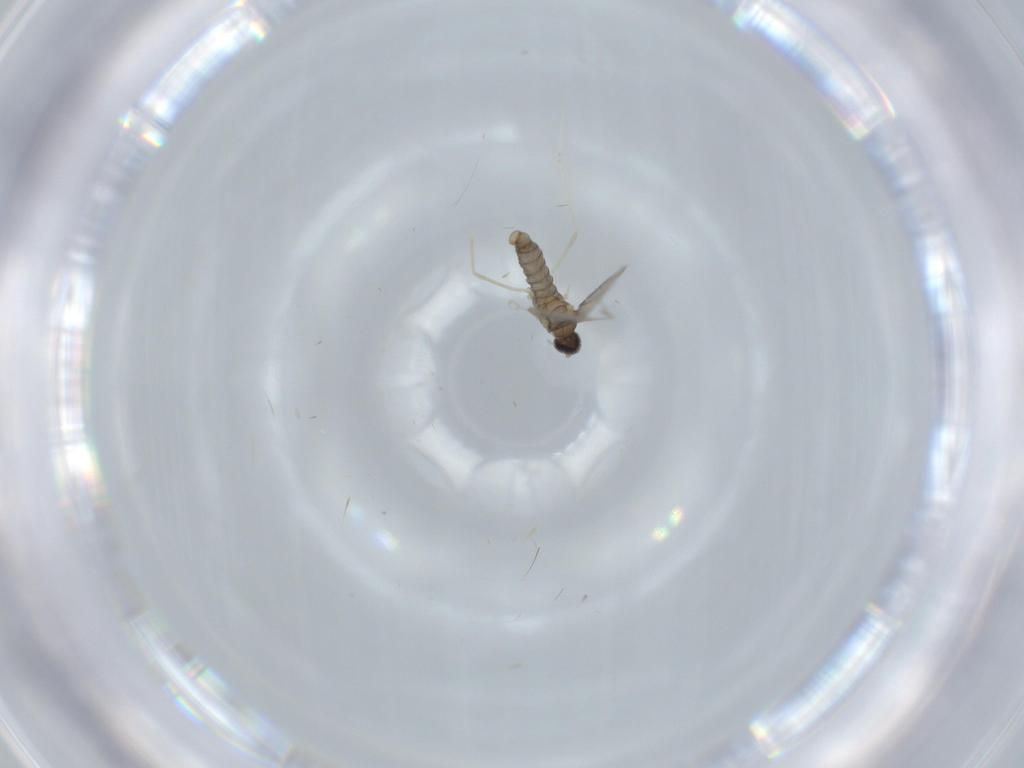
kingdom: Animalia
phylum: Arthropoda
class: Insecta
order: Diptera
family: Cecidomyiidae
